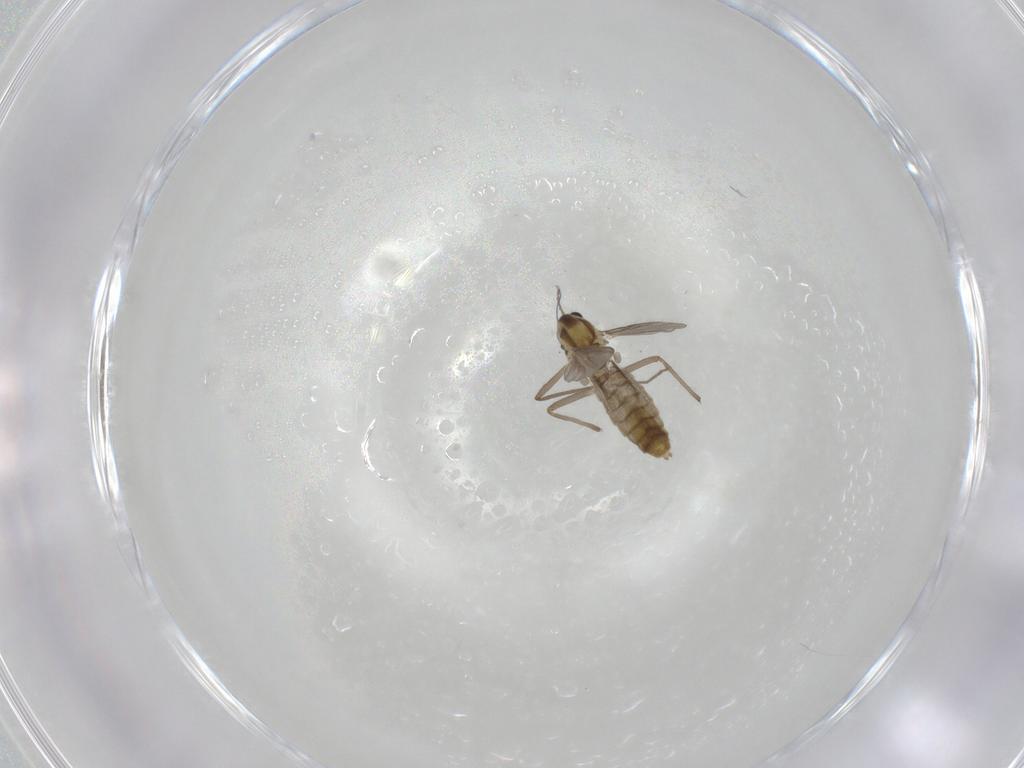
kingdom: Animalia
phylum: Arthropoda
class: Insecta
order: Diptera
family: Chironomidae
